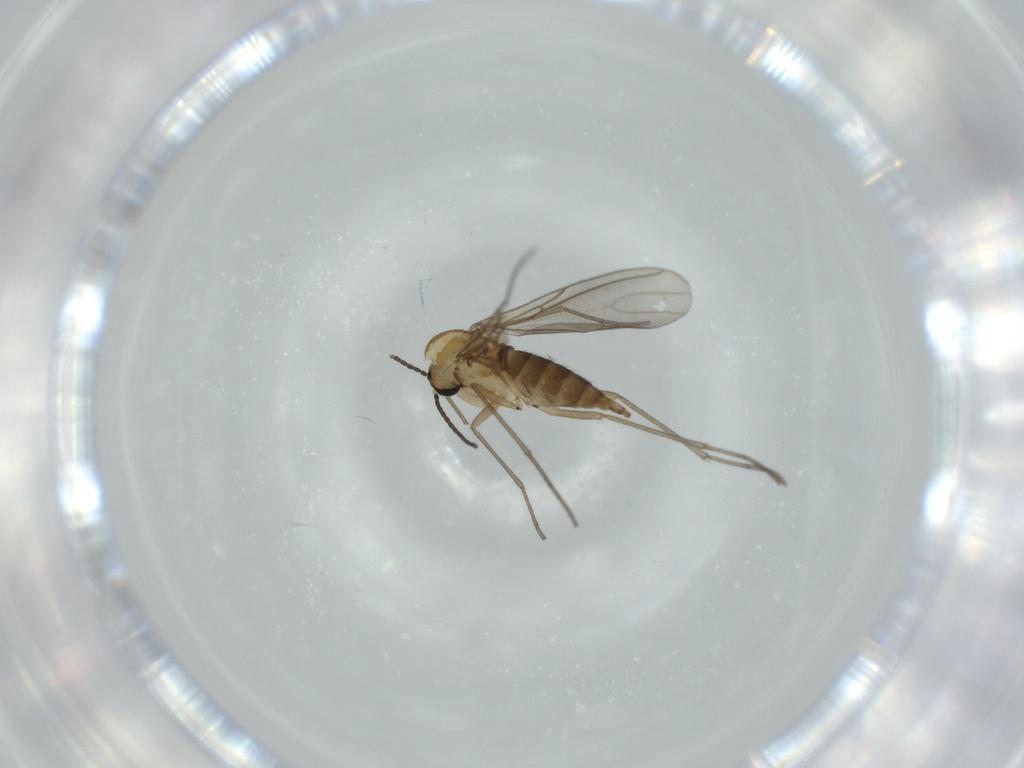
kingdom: Animalia
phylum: Arthropoda
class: Insecta
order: Diptera
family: Sciaridae
